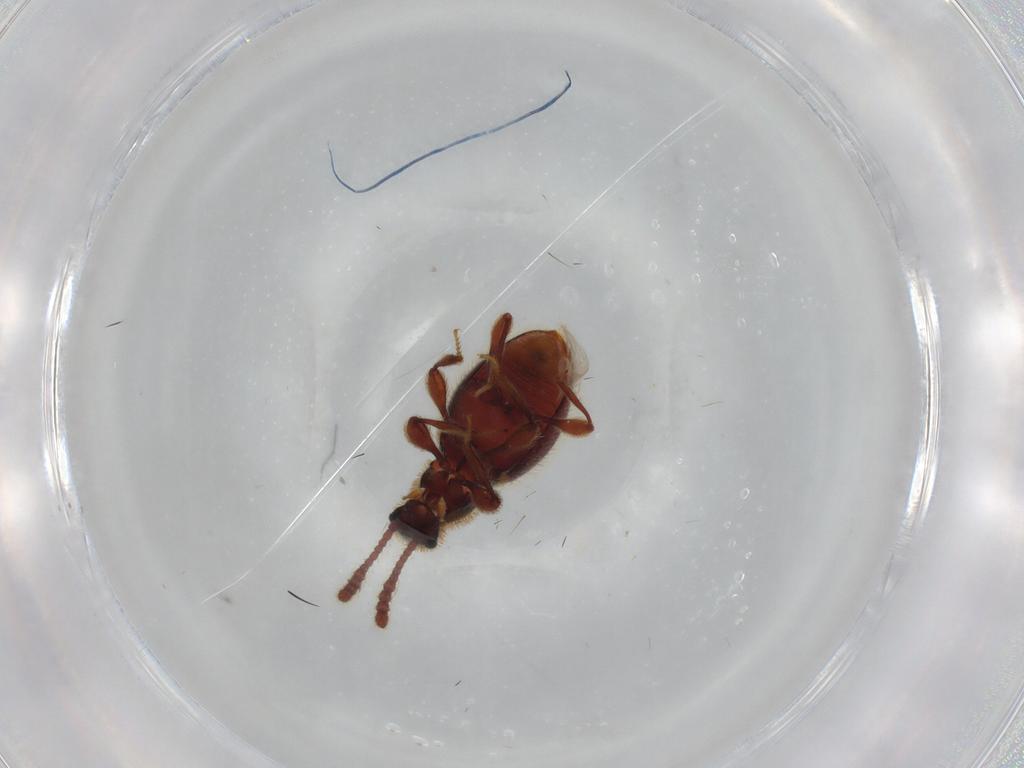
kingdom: Animalia
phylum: Arthropoda
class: Insecta
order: Coleoptera
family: Staphylinidae
